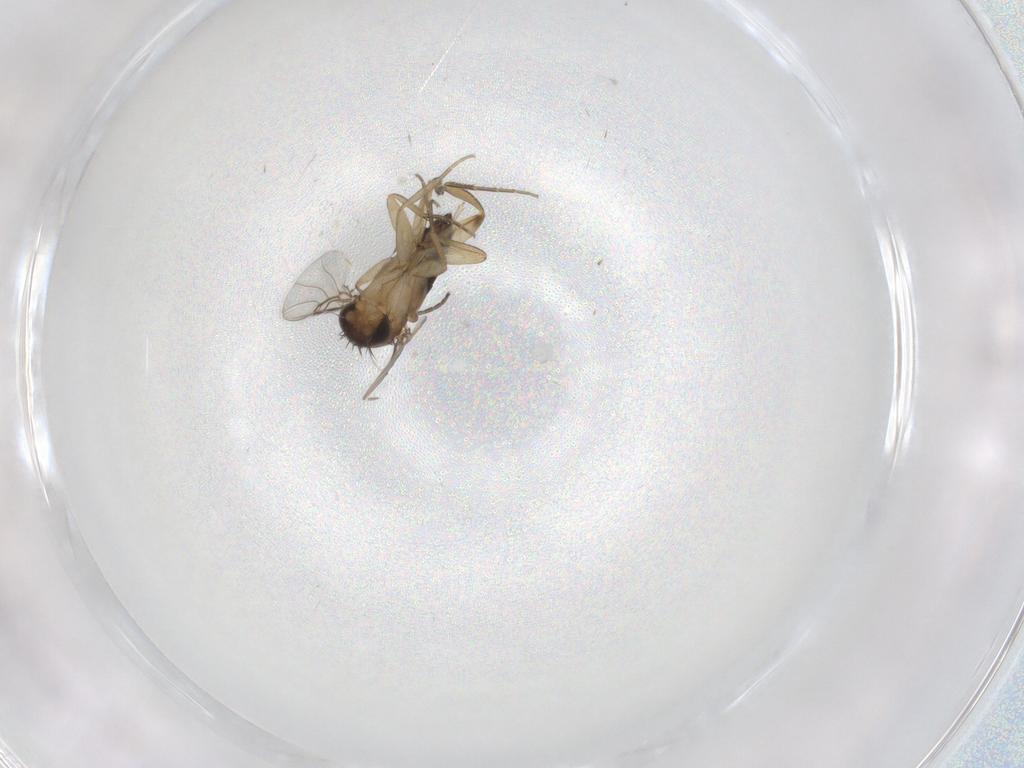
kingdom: Animalia
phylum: Arthropoda
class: Insecta
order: Diptera
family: Sciaridae
